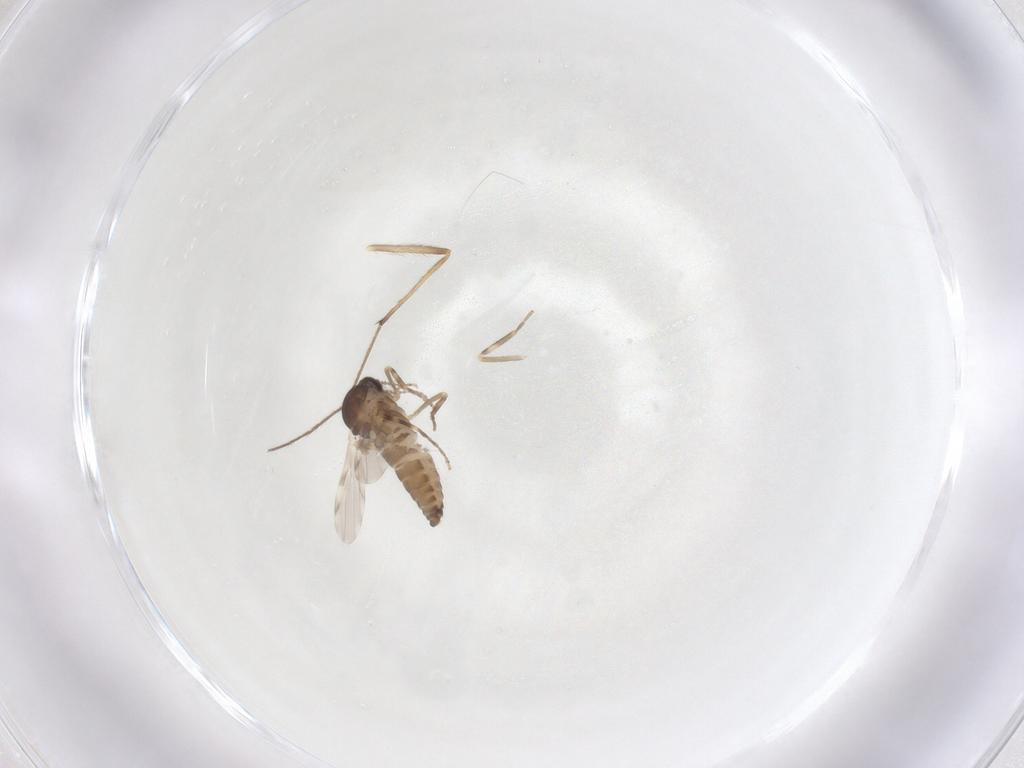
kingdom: Animalia
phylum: Arthropoda
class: Insecta
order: Diptera
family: Ceratopogonidae
